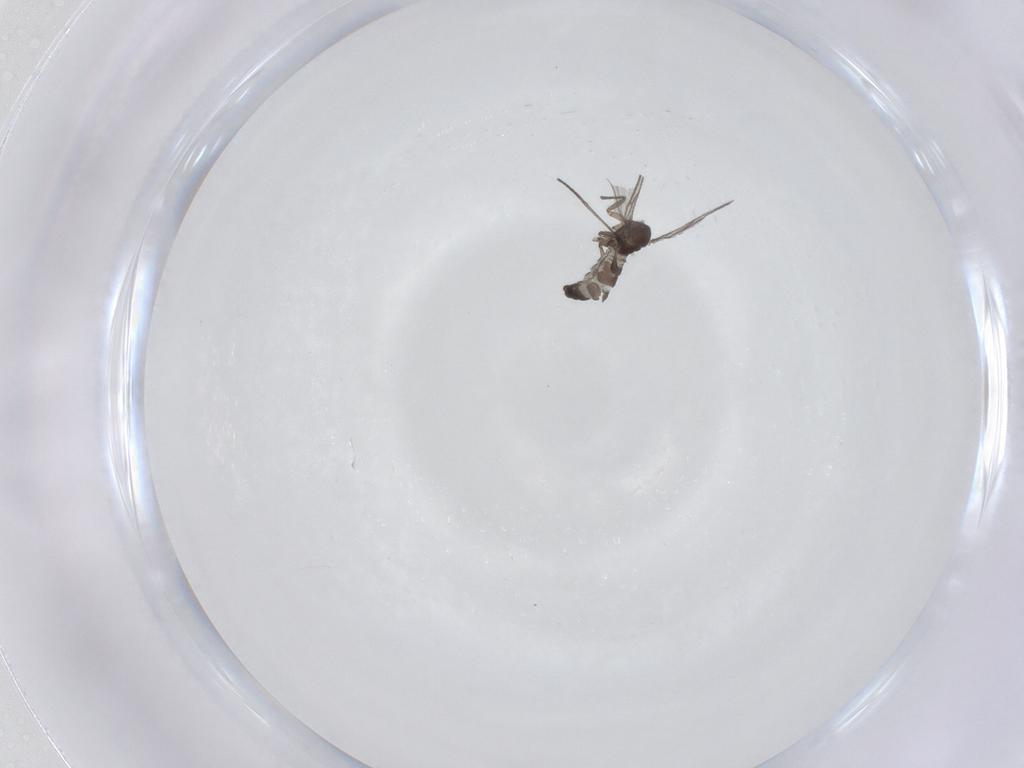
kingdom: Animalia
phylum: Arthropoda
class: Insecta
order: Diptera
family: Cecidomyiidae
